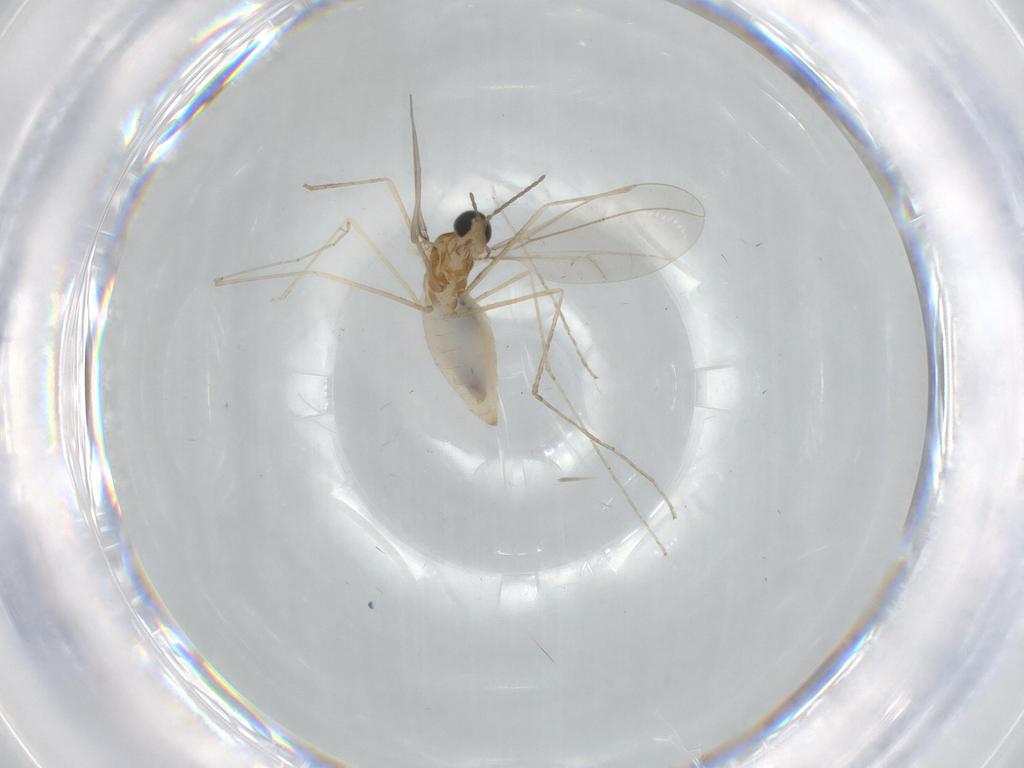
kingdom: Animalia
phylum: Arthropoda
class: Insecta
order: Diptera
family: Cecidomyiidae
